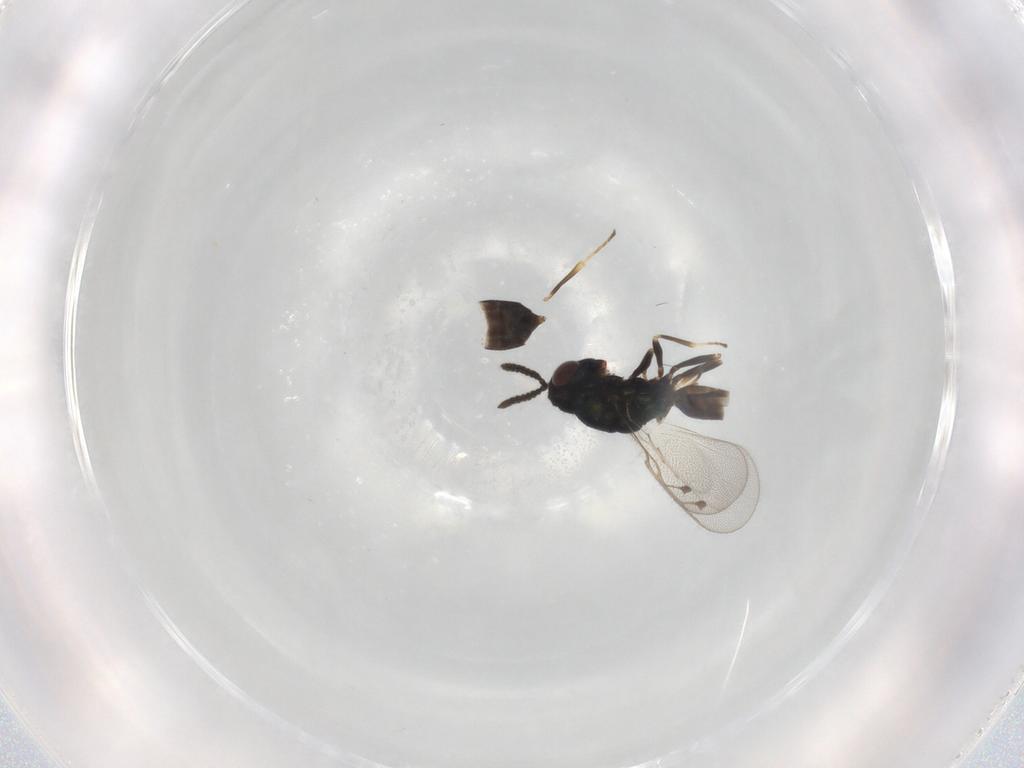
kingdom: Animalia
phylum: Arthropoda
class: Insecta
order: Hymenoptera
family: Pteromalidae
